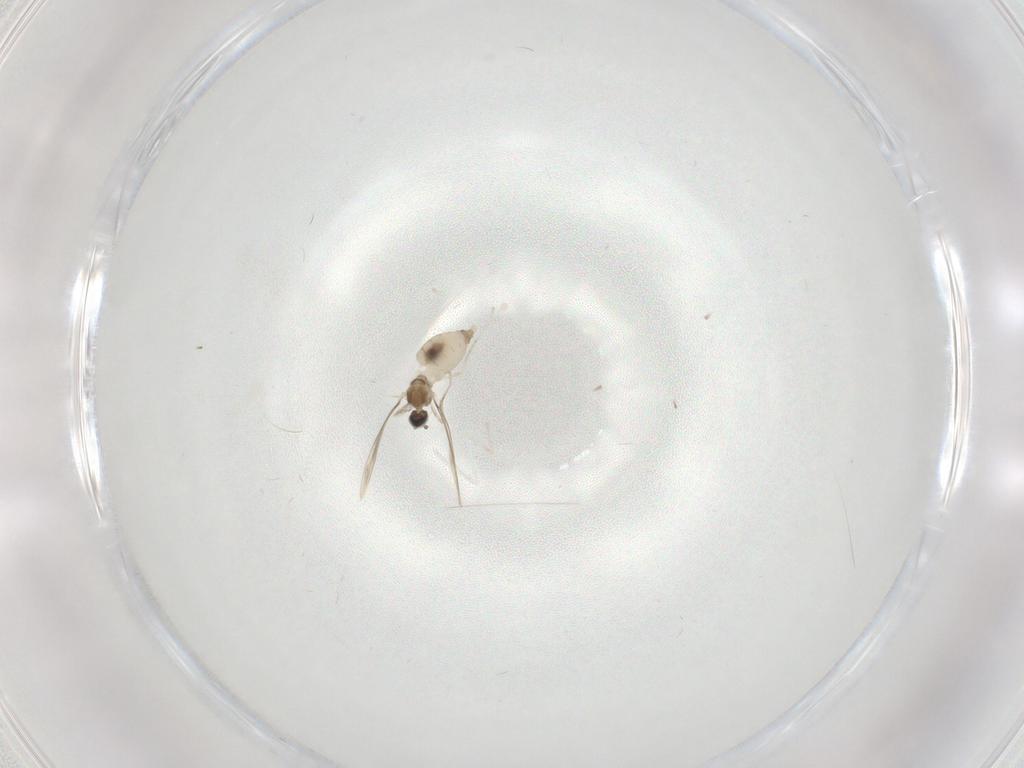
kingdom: Animalia
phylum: Arthropoda
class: Insecta
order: Diptera
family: Cecidomyiidae
